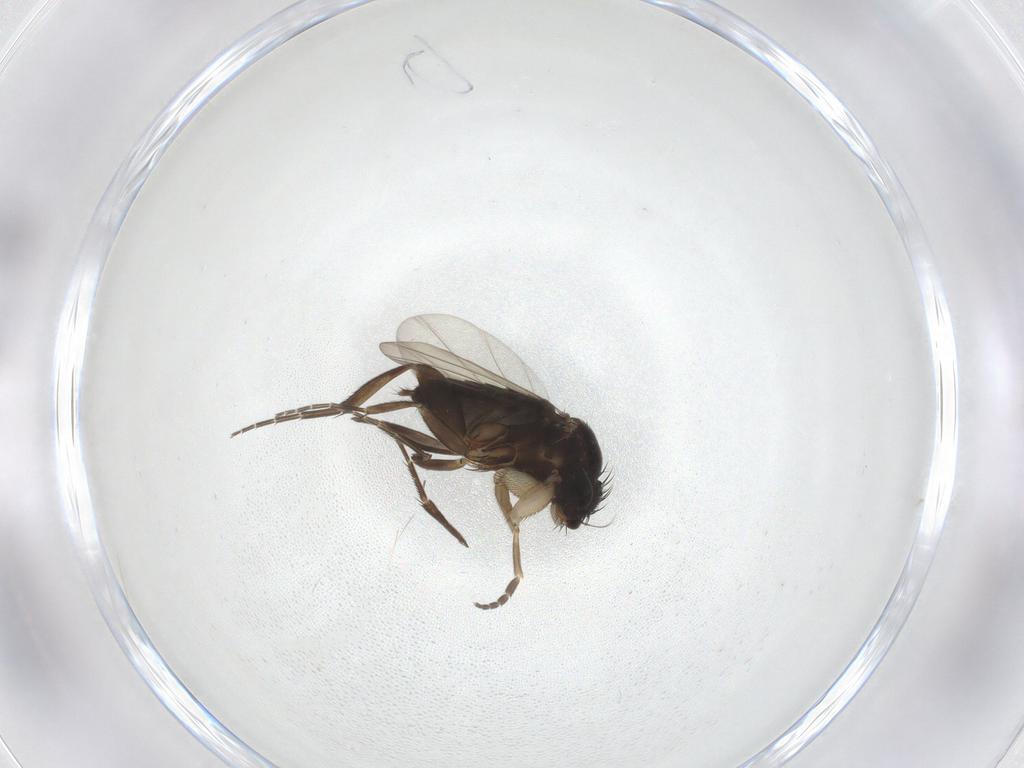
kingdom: Animalia
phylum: Arthropoda
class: Insecta
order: Diptera
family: Phoridae
